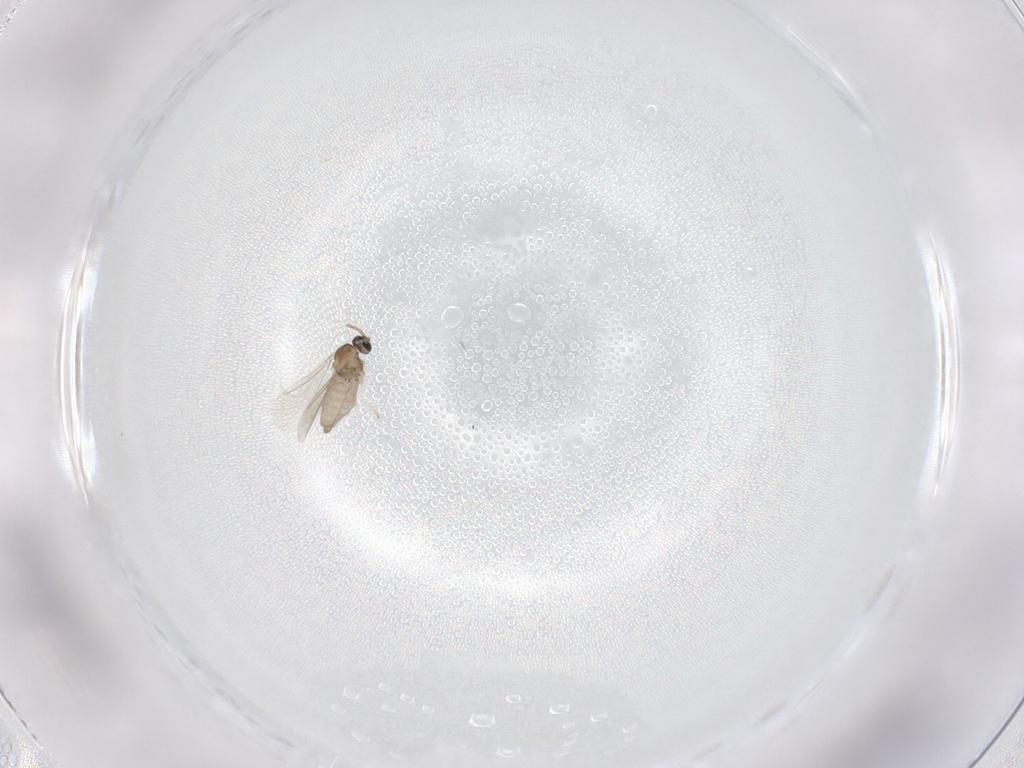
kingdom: Animalia
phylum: Arthropoda
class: Insecta
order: Diptera
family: Cecidomyiidae
